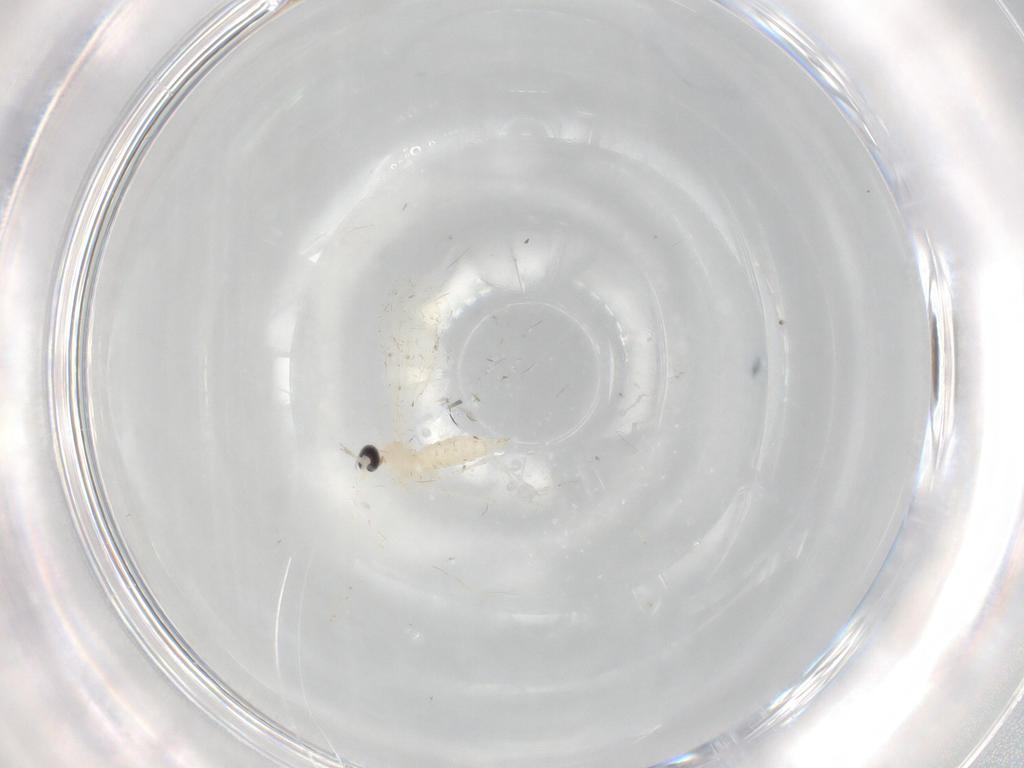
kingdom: Animalia
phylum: Arthropoda
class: Insecta
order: Diptera
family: Cecidomyiidae
